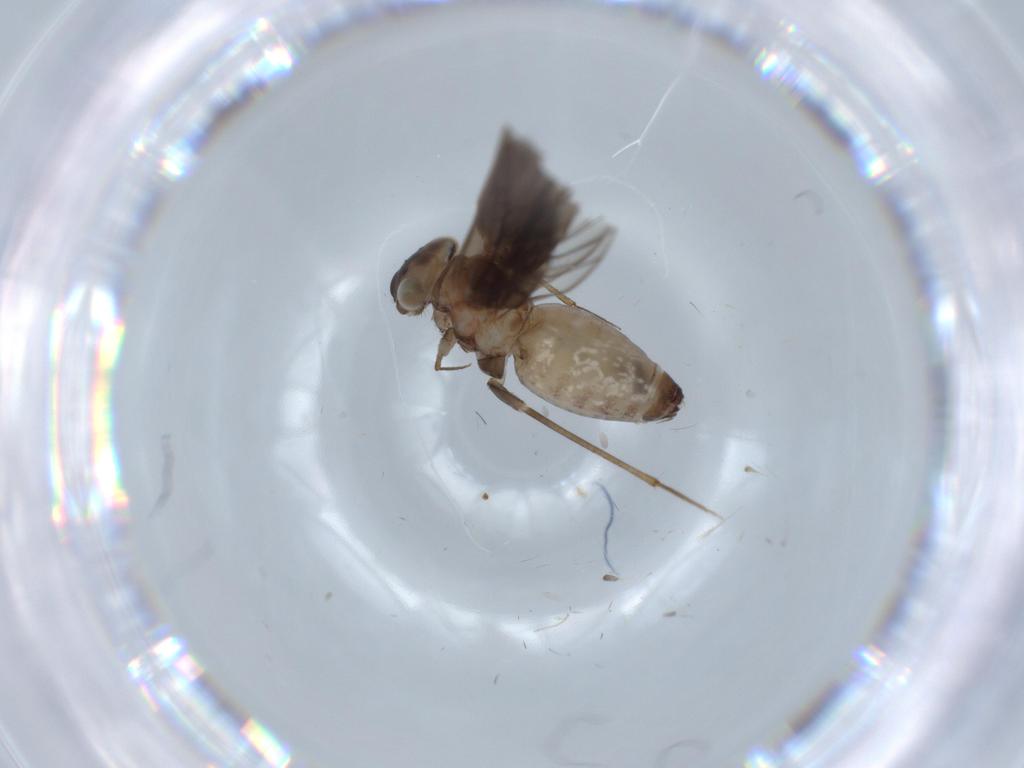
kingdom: Animalia
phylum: Arthropoda
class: Insecta
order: Psocodea
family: Lepidopsocidae
